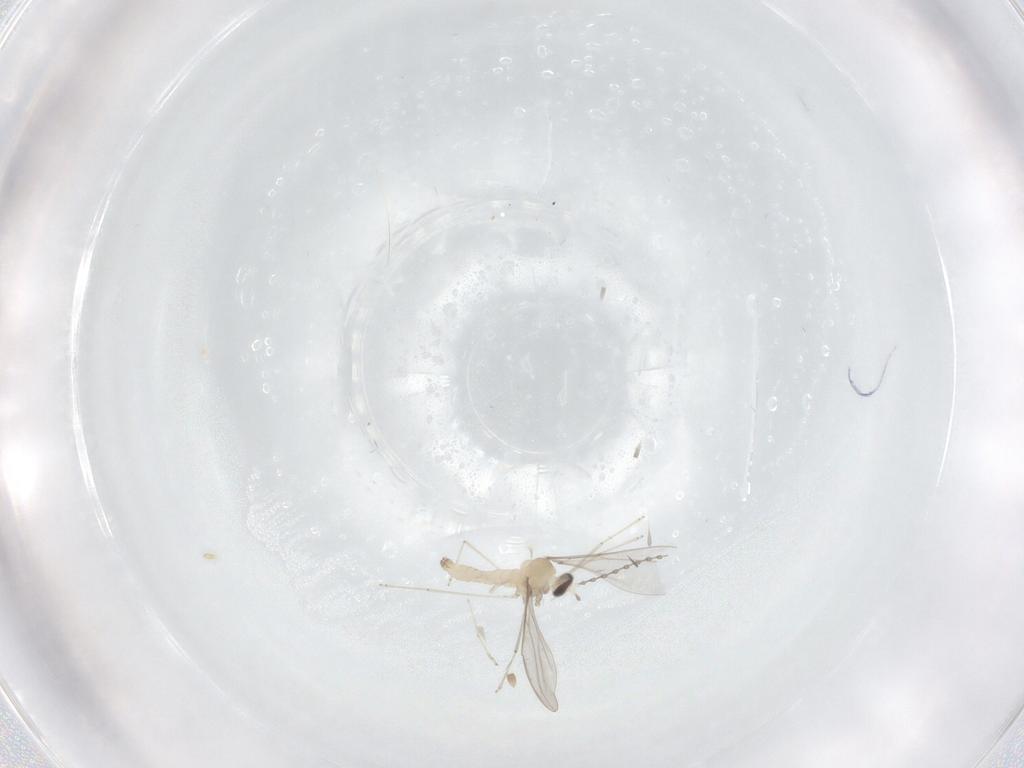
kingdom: Animalia
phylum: Arthropoda
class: Insecta
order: Diptera
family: Cecidomyiidae
